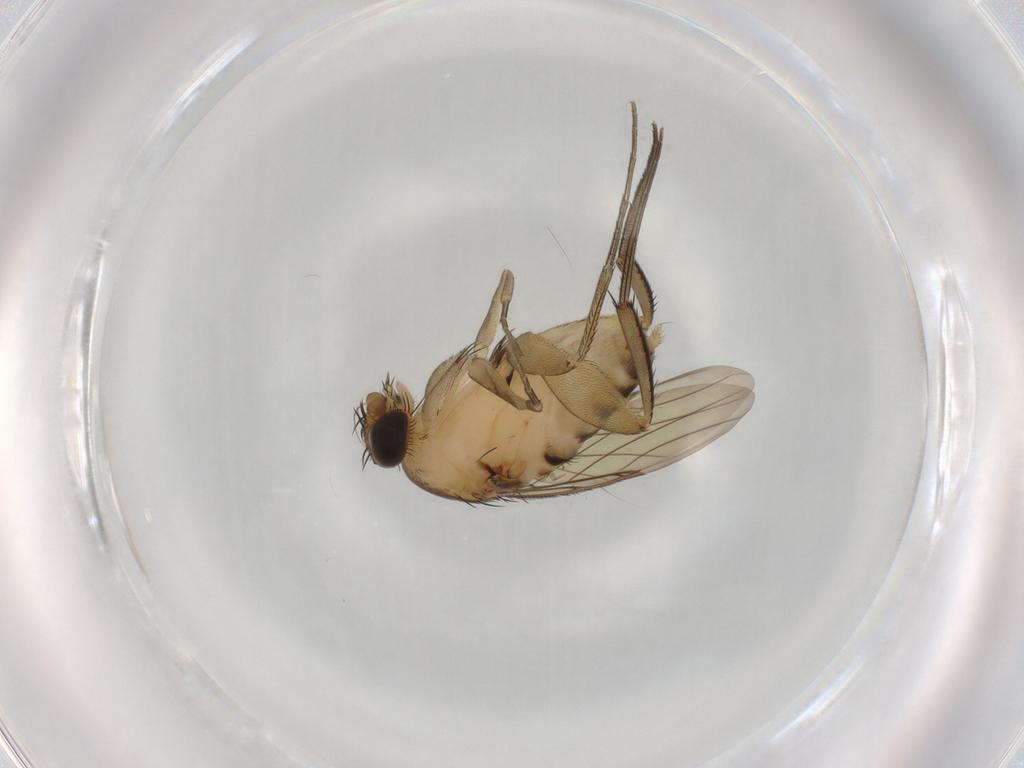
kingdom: Animalia
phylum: Arthropoda
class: Insecta
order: Diptera
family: Phoridae
